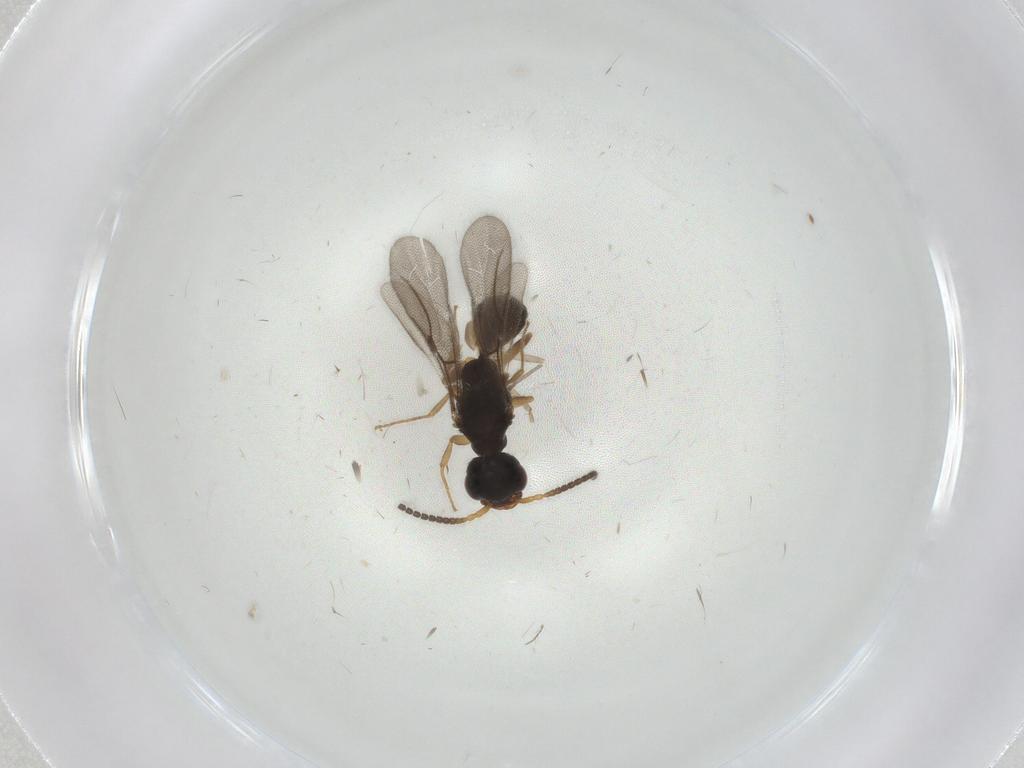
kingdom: Animalia
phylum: Arthropoda
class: Insecta
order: Hymenoptera
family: Bethylidae
